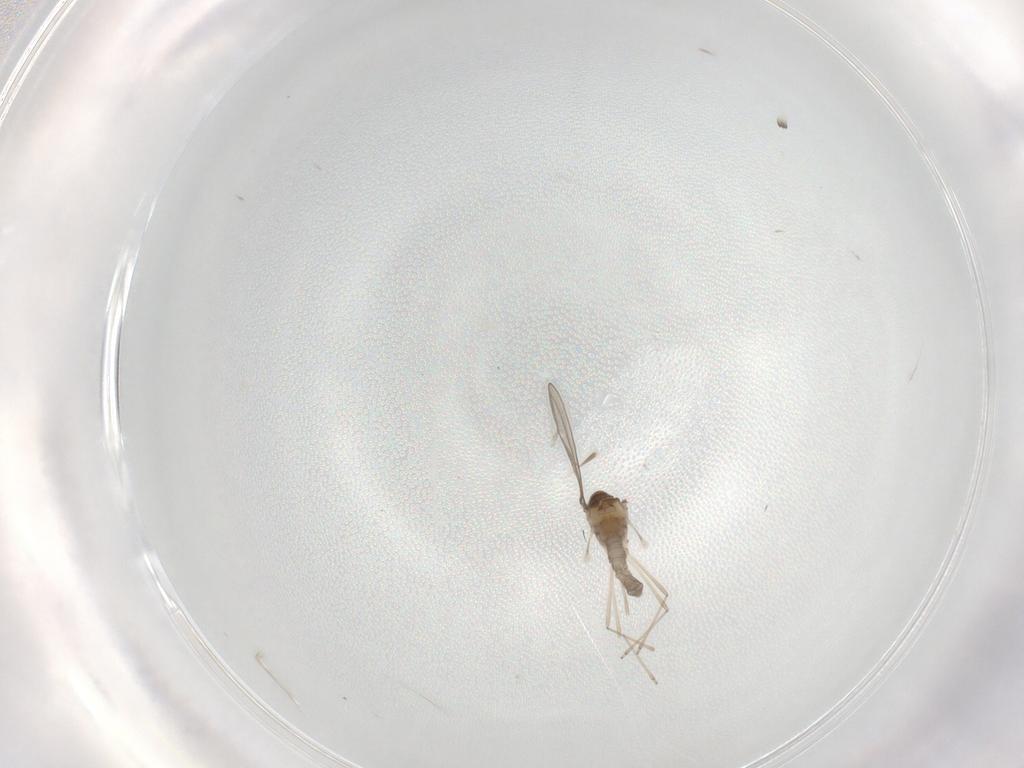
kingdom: Animalia
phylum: Arthropoda
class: Insecta
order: Diptera
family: Cecidomyiidae
